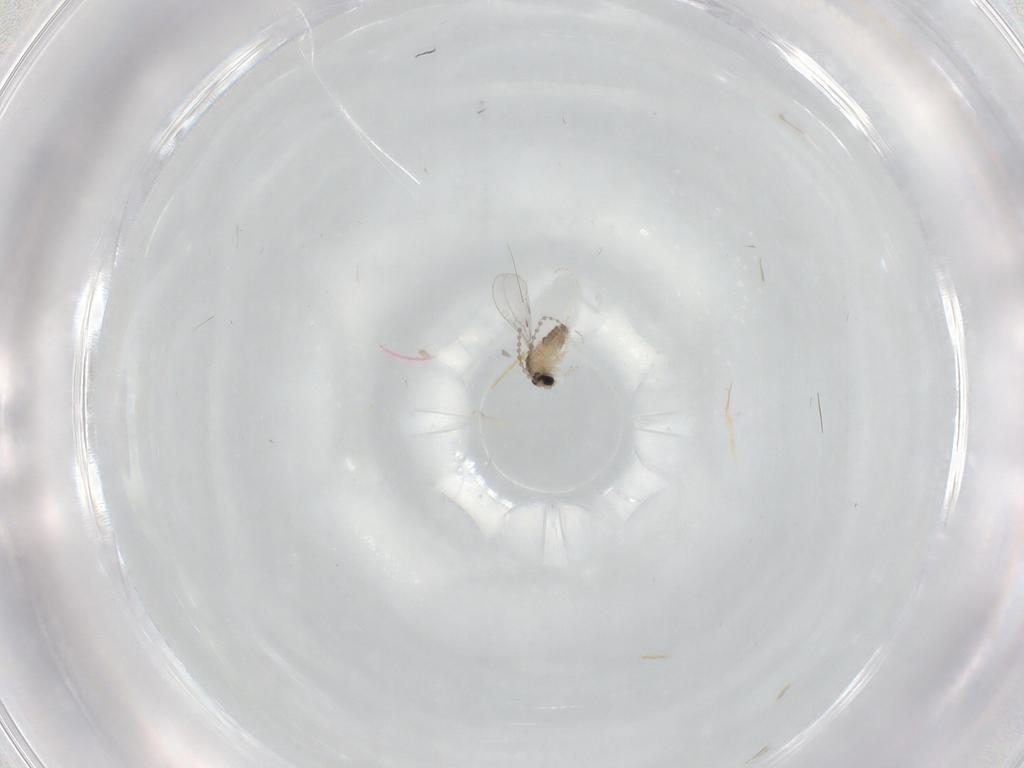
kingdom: Animalia
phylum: Arthropoda
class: Insecta
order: Diptera
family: Cecidomyiidae
